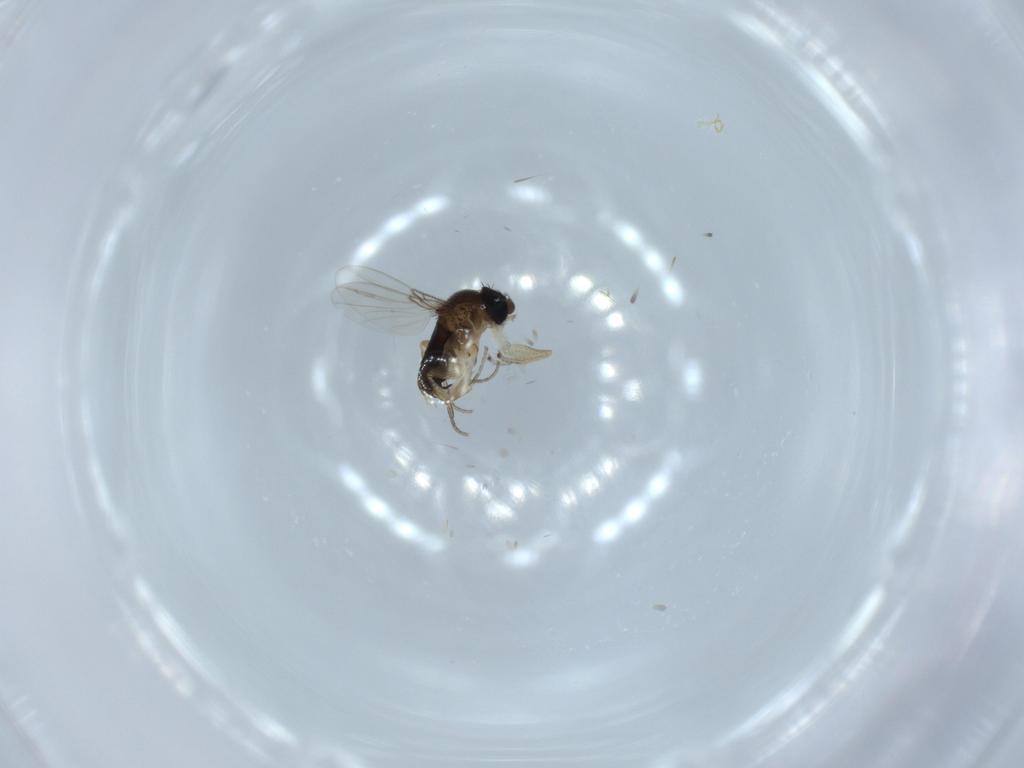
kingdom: Animalia
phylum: Arthropoda
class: Insecta
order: Diptera
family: Phoridae
